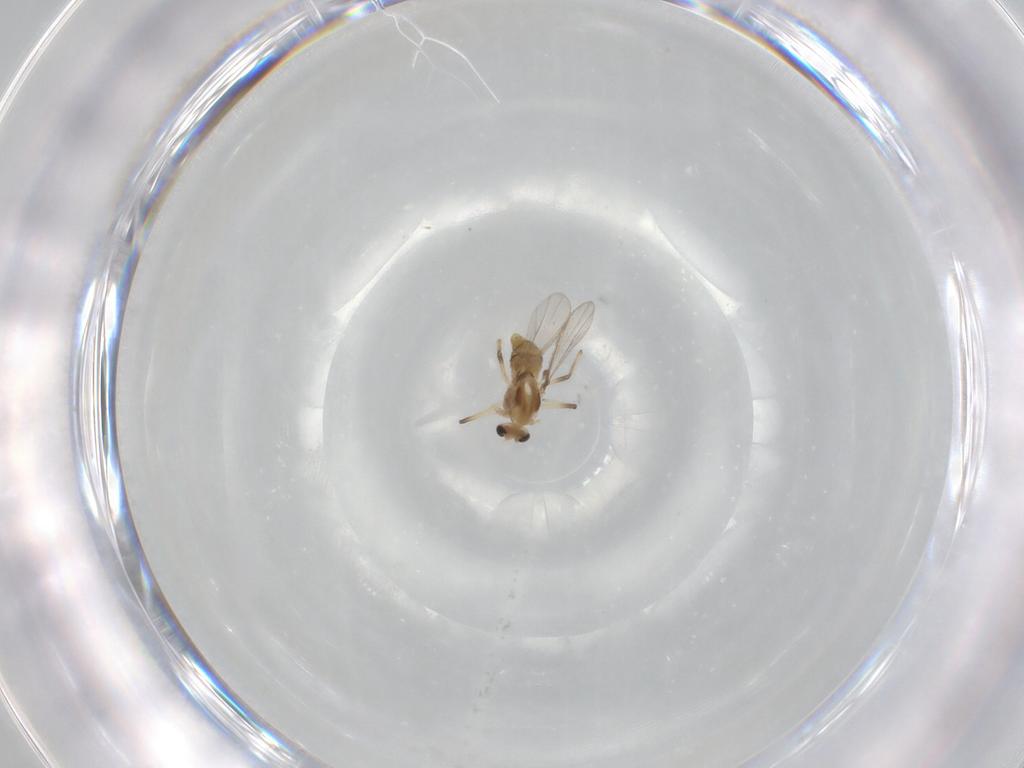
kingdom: Animalia
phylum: Arthropoda
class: Insecta
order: Diptera
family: Chironomidae
